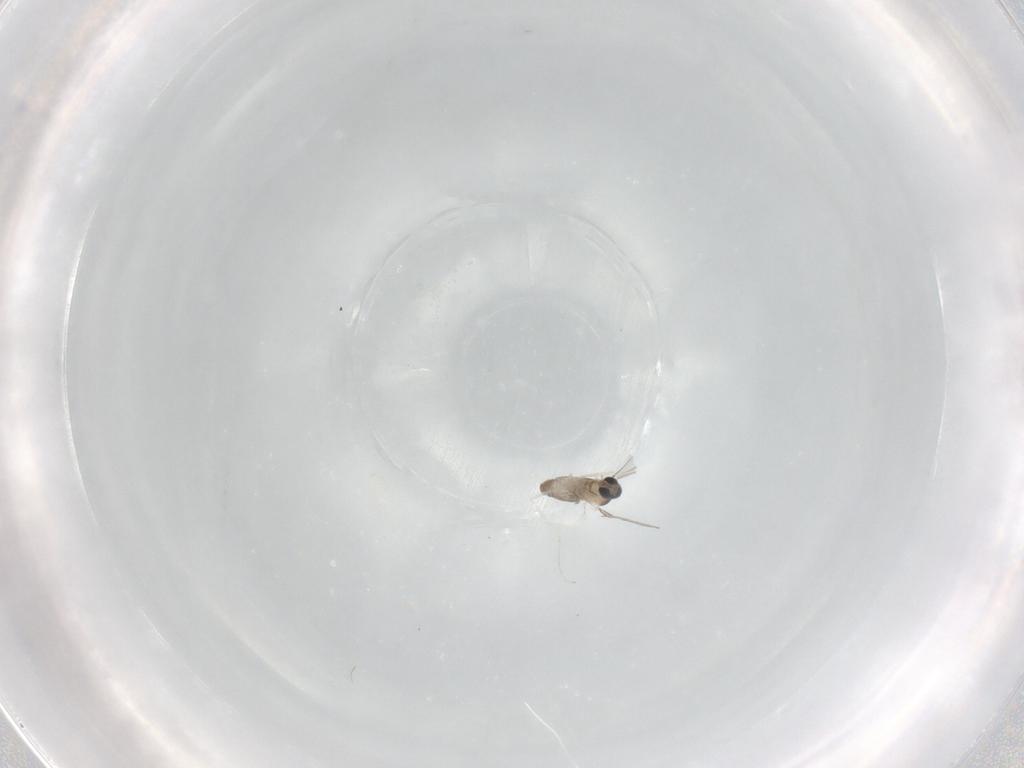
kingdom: Animalia
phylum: Arthropoda
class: Insecta
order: Diptera
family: Cecidomyiidae
